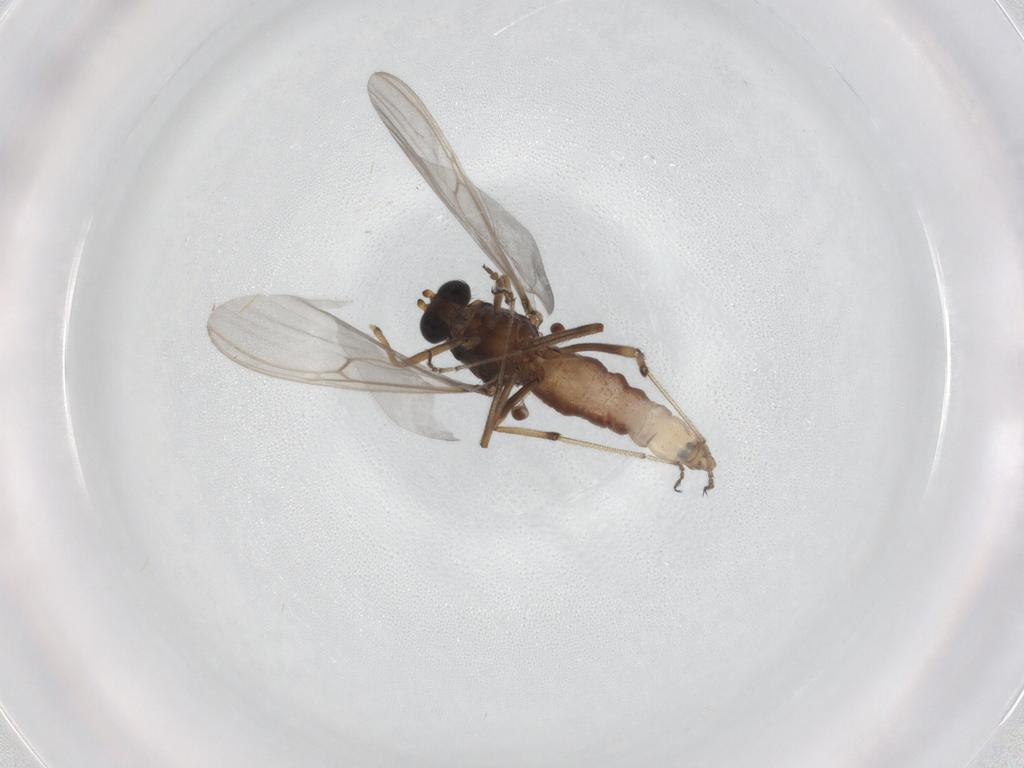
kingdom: Animalia
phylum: Arthropoda
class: Insecta
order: Diptera
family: Ceratopogonidae
